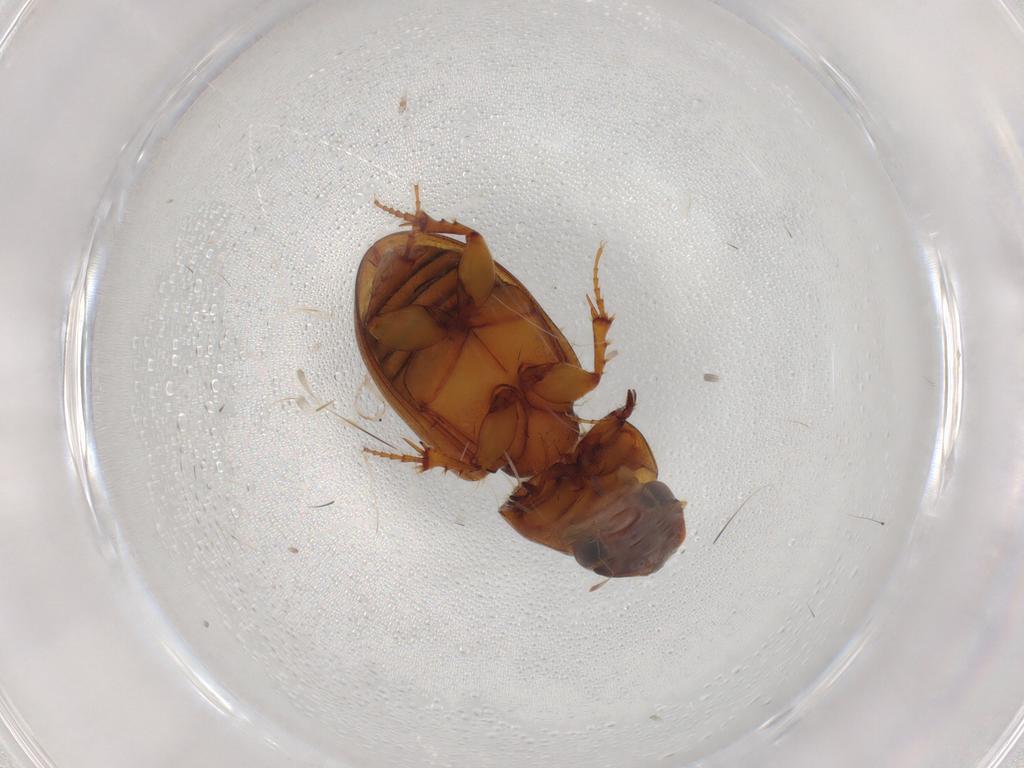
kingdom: Animalia
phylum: Arthropoda
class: Insecta
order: Coleoptera
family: Staphylinidae
